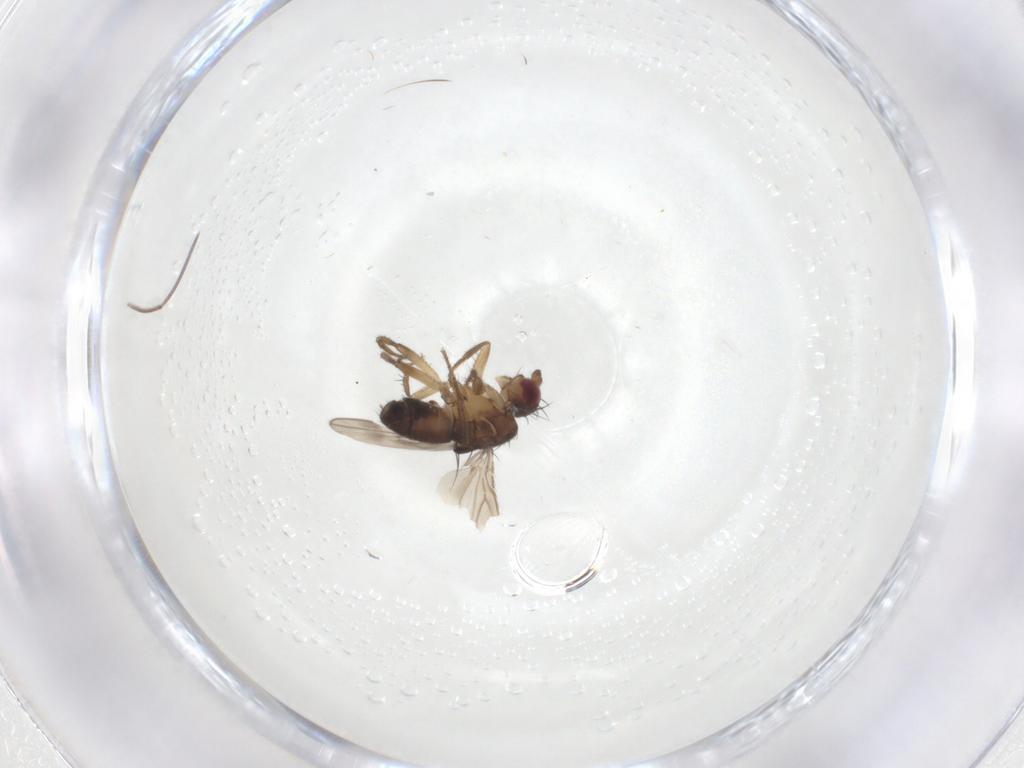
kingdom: Animalia
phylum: Arthropoda
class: Insecta
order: Diptera
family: Sphaeroceridae
